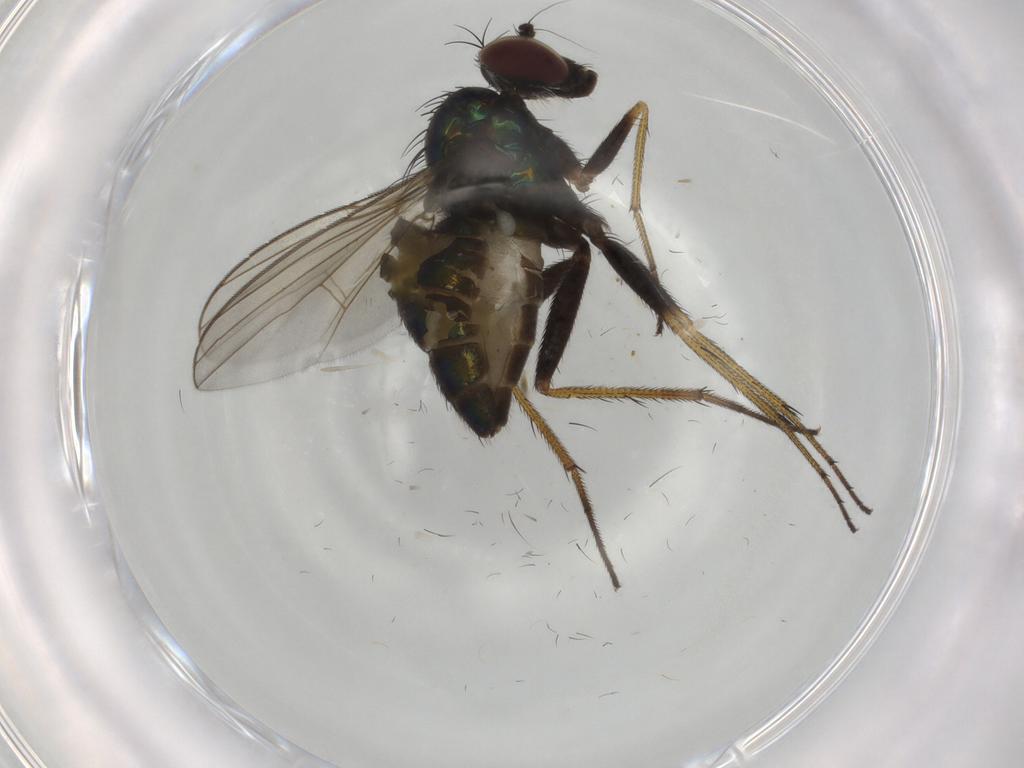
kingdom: Animalia
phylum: Arthropoda
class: Insecta
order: Diptera
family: Dolichopodidae
